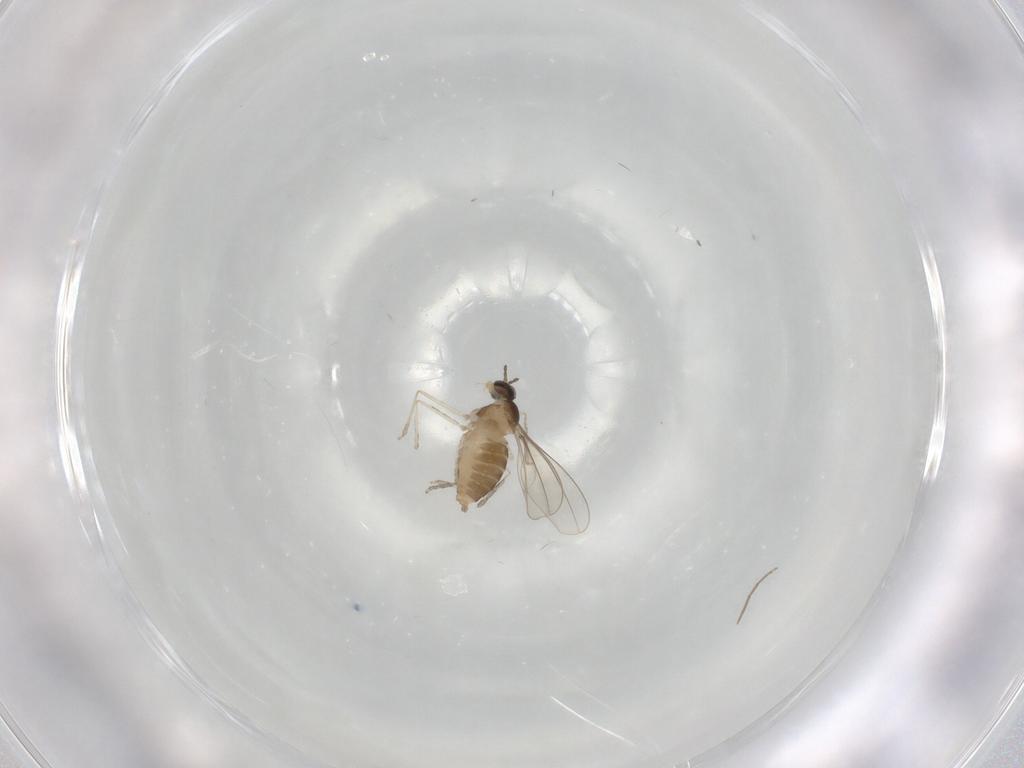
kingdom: Animalia
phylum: Arthropoda
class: Insecta
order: Diptera
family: Cecidomyiidae
